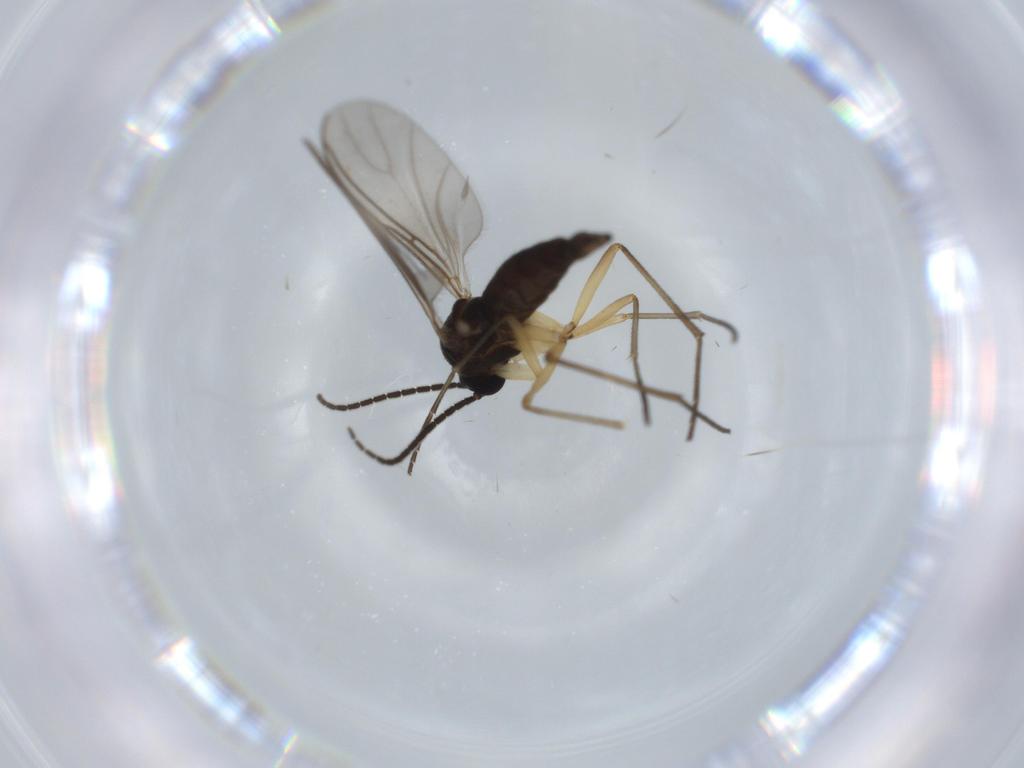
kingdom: Animalia
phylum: Arthropoda
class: Insecta
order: Diptera
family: Sciaridae
